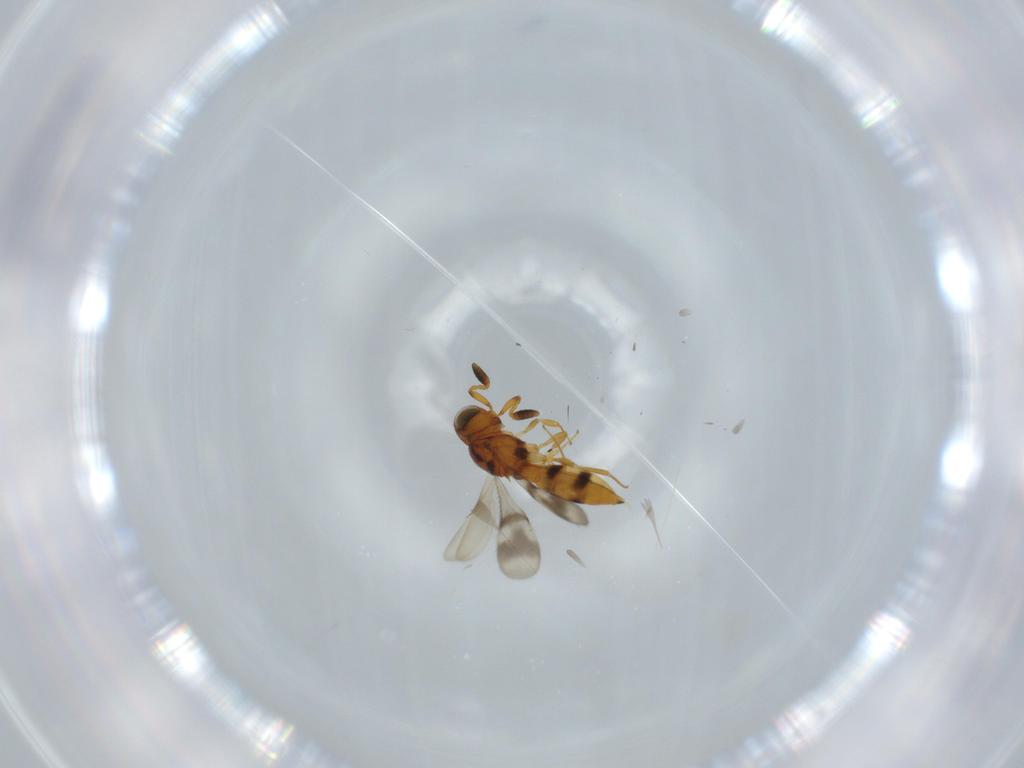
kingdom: Animalia
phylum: Arthropoda
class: Insecta
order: Hymenoptera
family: Scelionidae
